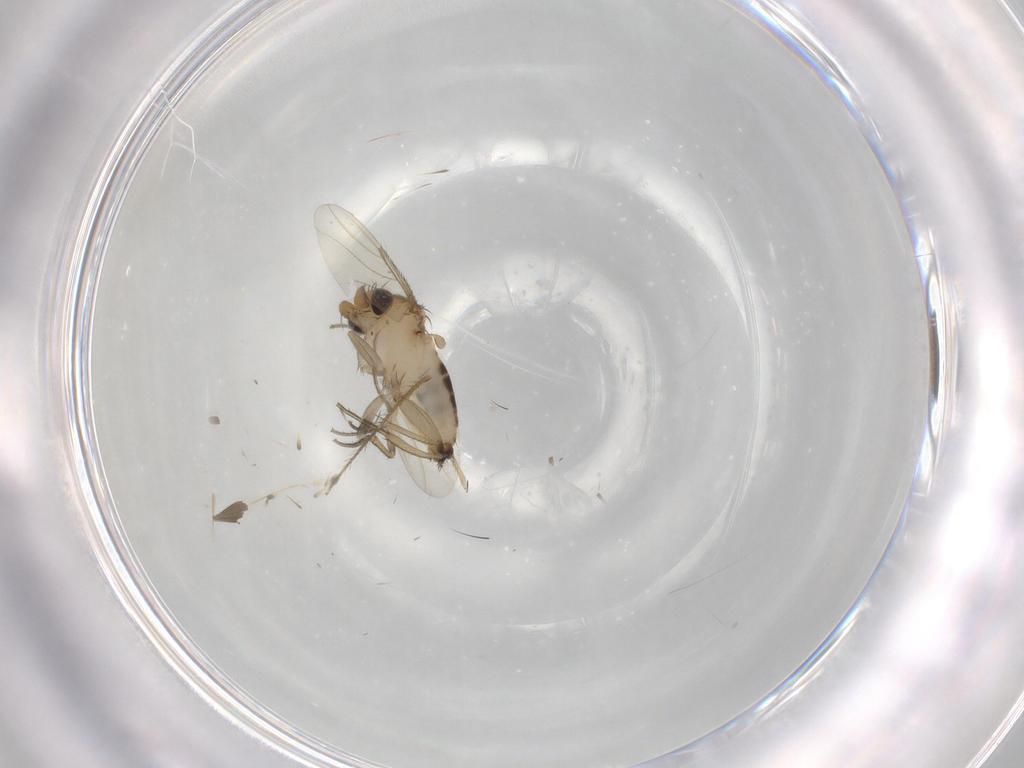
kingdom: Animalia
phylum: Arthropoda
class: Insecta
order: Diptera
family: Phoridae
